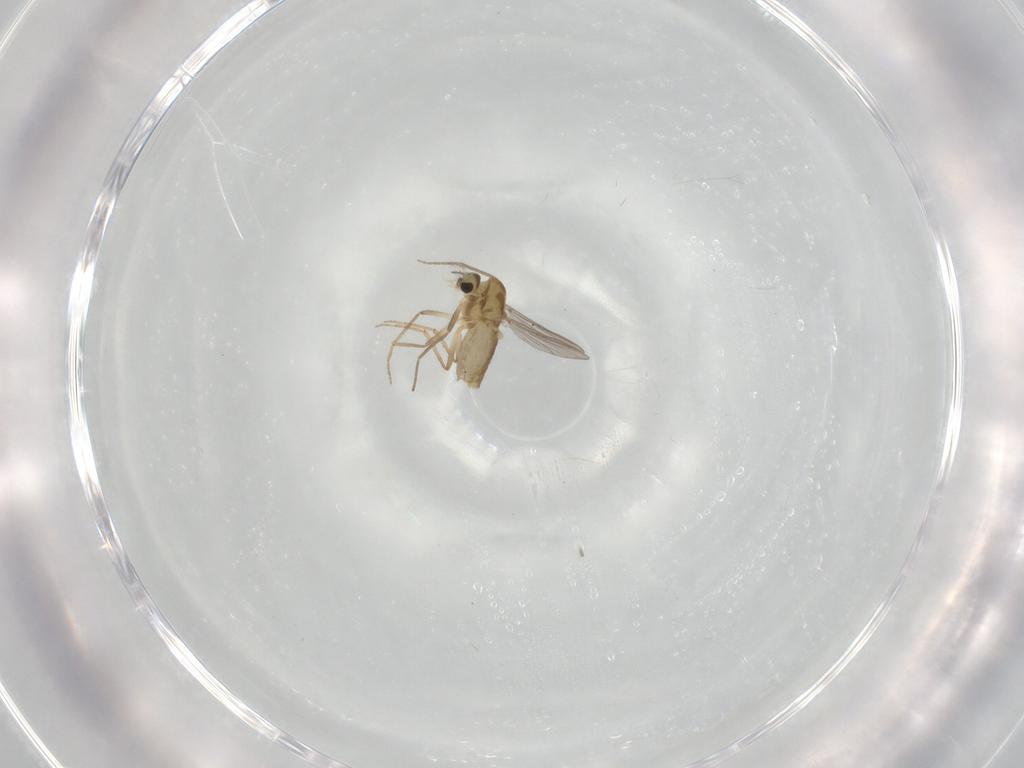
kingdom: Animalia
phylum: Arthropoda
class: Insecta
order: Diptera
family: Chironomidae
